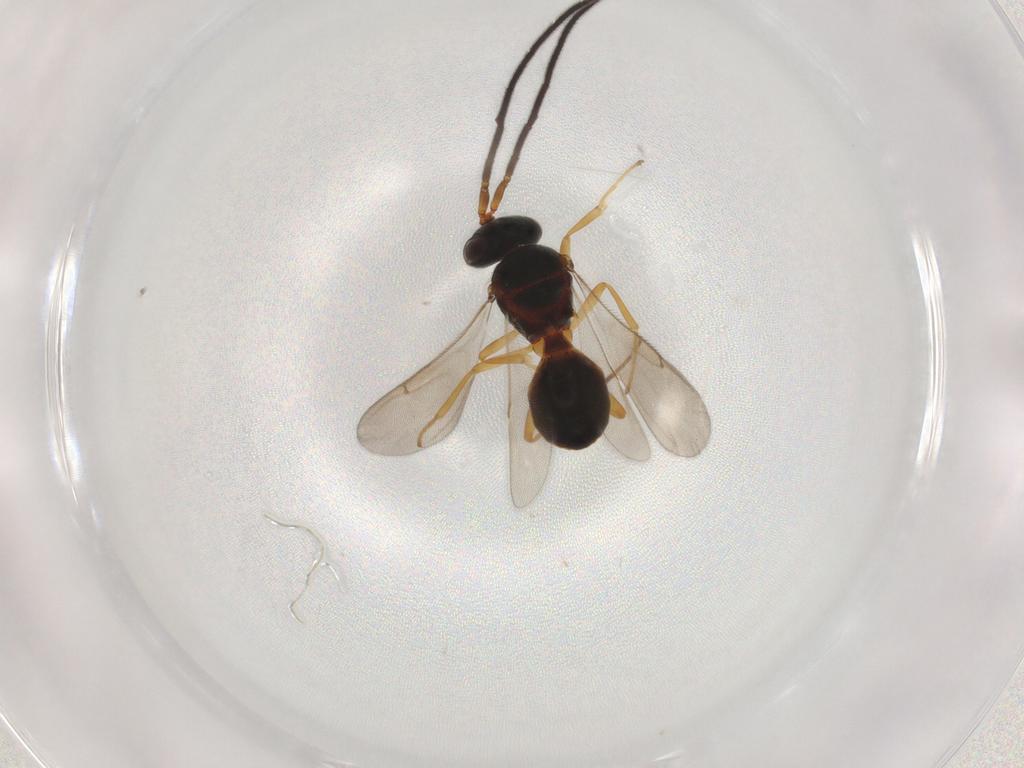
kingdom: Animalia
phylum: Arthropoda
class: Insecta
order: Hymenoptera
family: Scelionidae
